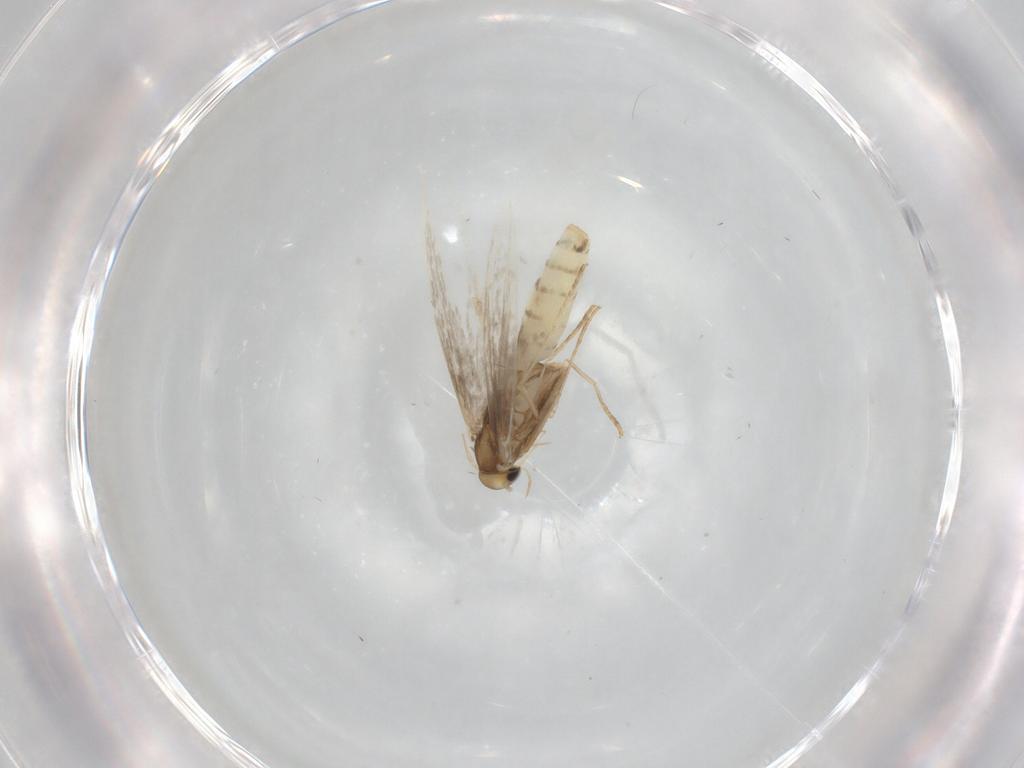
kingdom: Animalia
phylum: Arthropoda
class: Insecta
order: Lepidoptera
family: Gracillariidae
